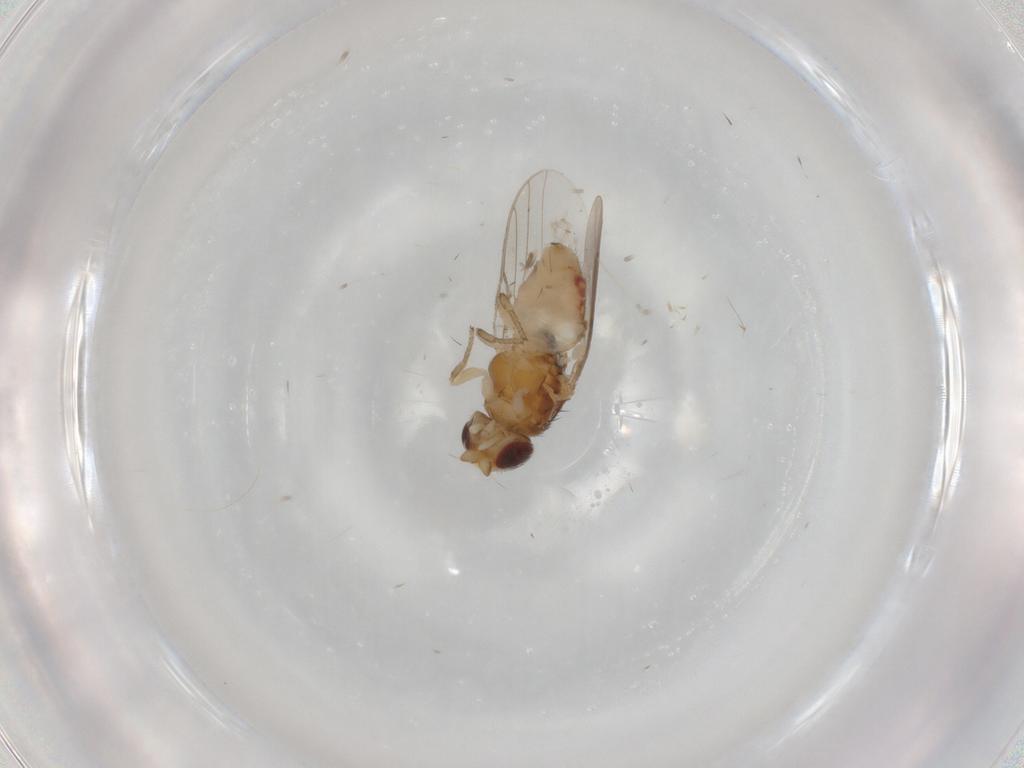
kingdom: Animalia
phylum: Arthropoda
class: Insecta
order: Diptera
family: Chloropidae
